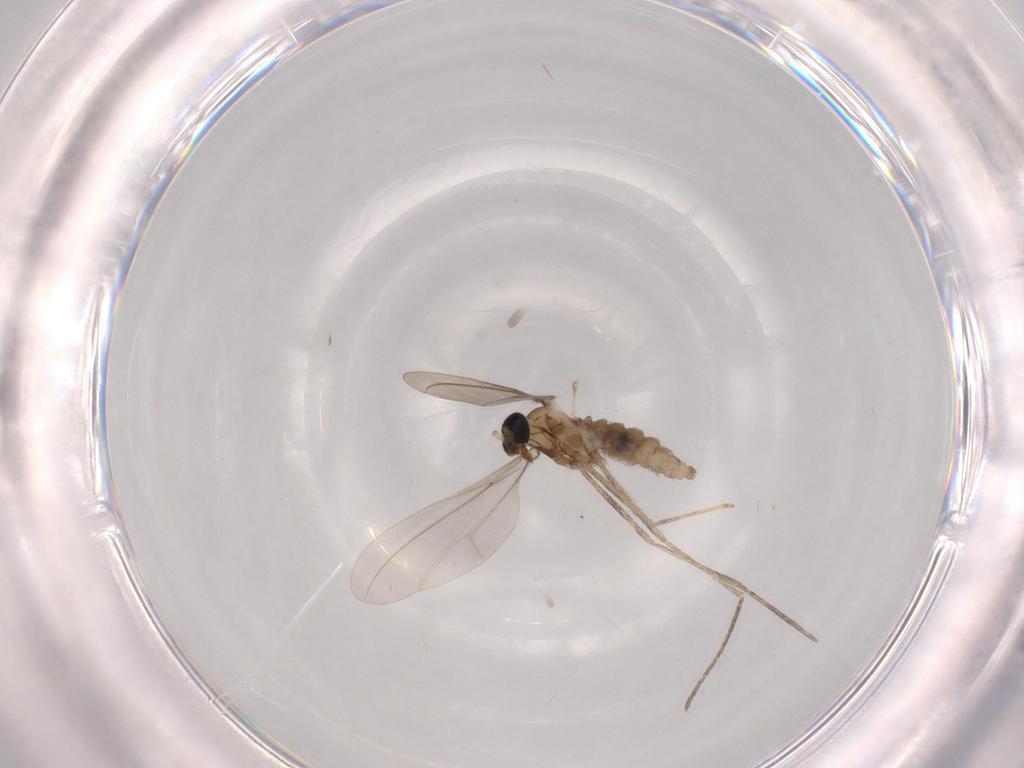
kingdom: Animalia
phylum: Arthropoda
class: Insecta
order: Diptera
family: Cecidomyiidae
